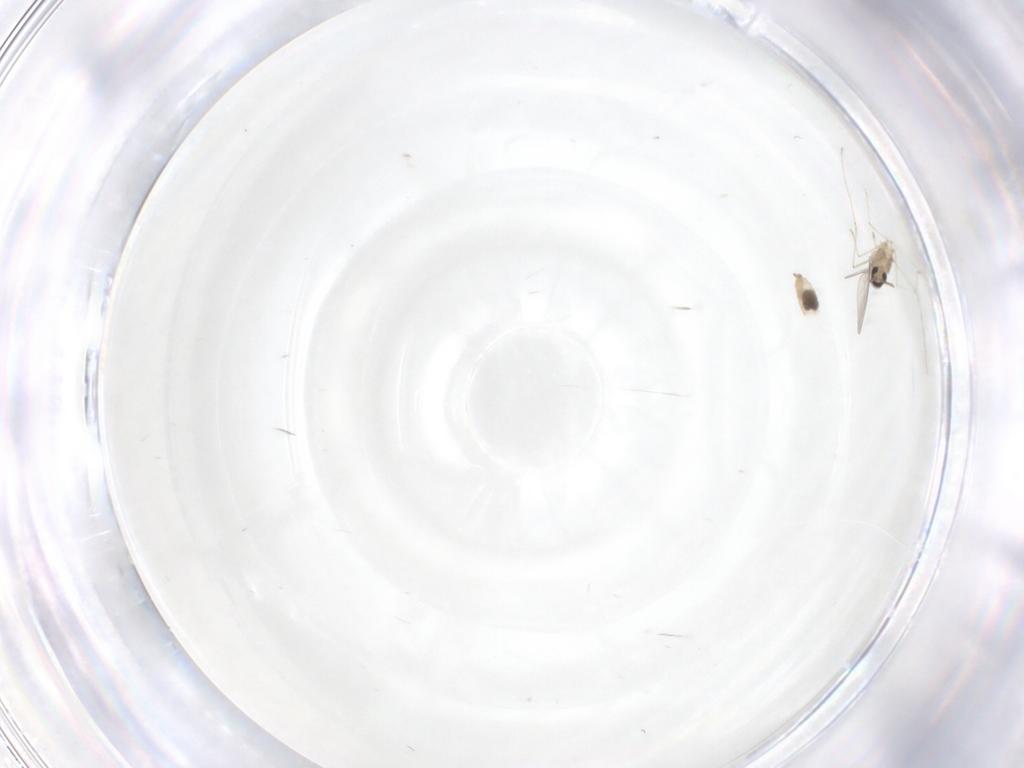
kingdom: Animalia
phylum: Arthropoda
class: Insecta
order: Diptera
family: Cecidomyiidae
